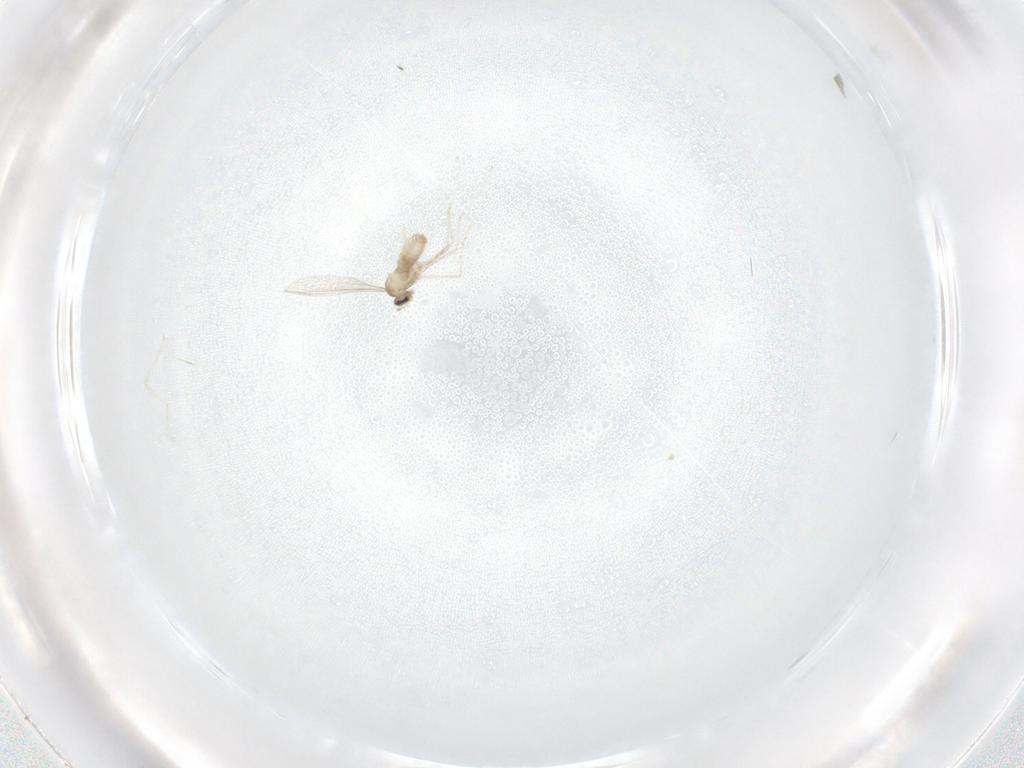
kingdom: Animalia
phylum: Arthropoda
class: Insecta
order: Diptera
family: Cecidomyiidae
